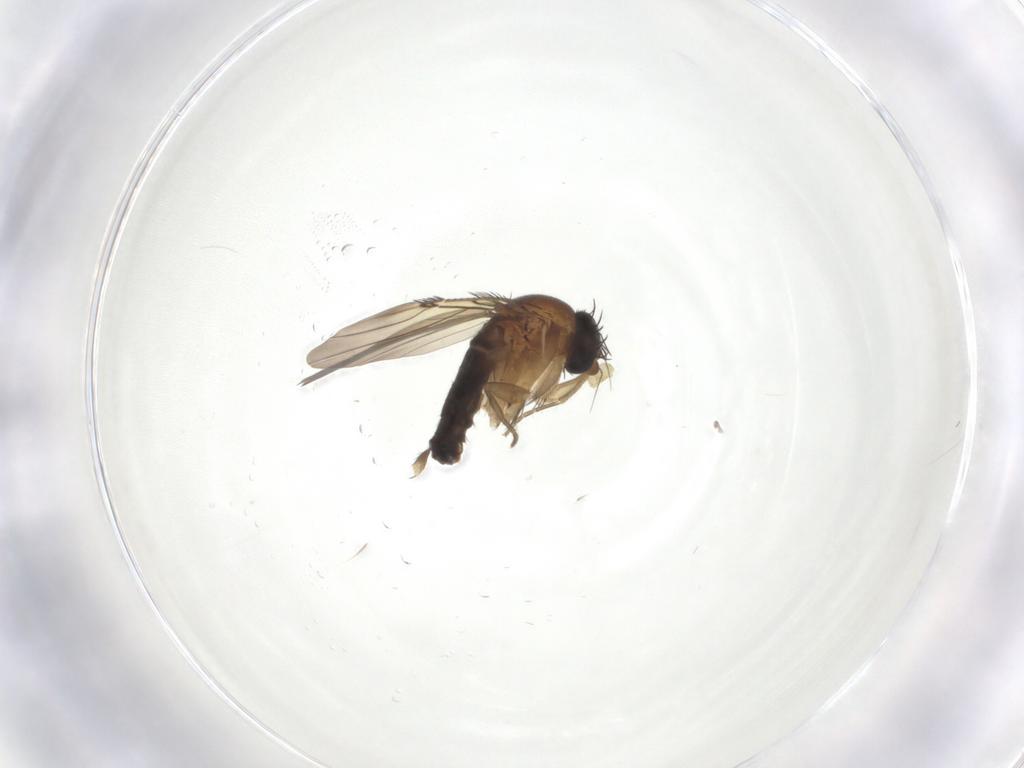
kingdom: Animalia
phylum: Arthropoda
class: Insecta
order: Diptera
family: Phoridae
